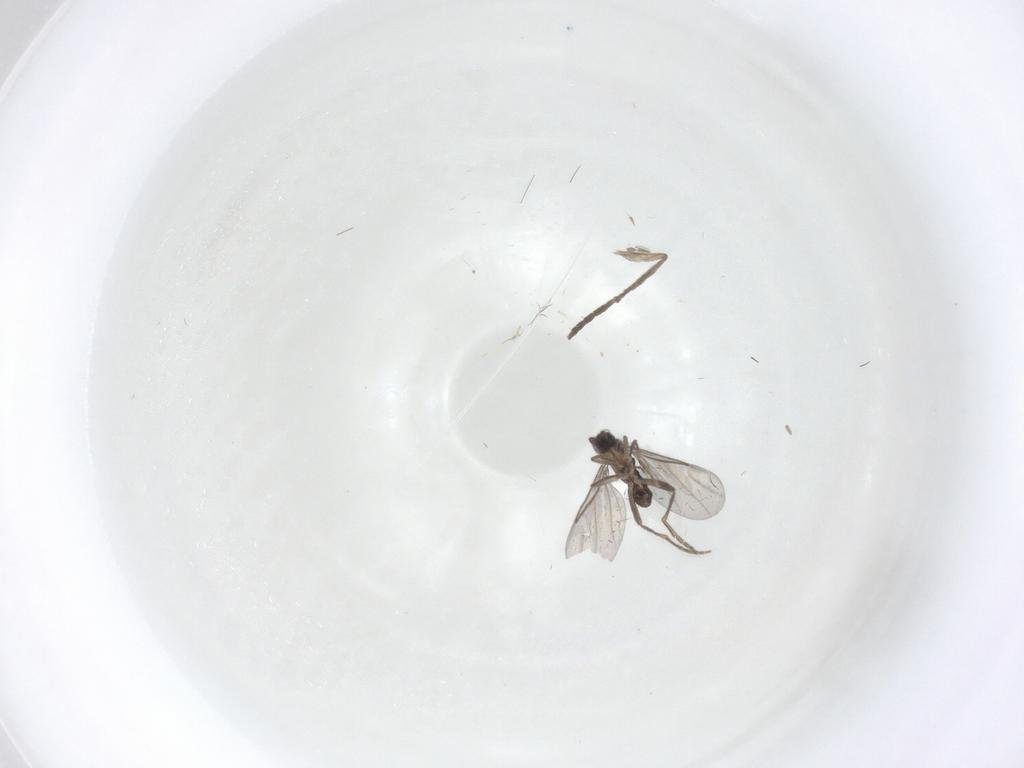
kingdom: Animalia
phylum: Arthropoda
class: Insecta
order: Diptera
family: Psychodidae
